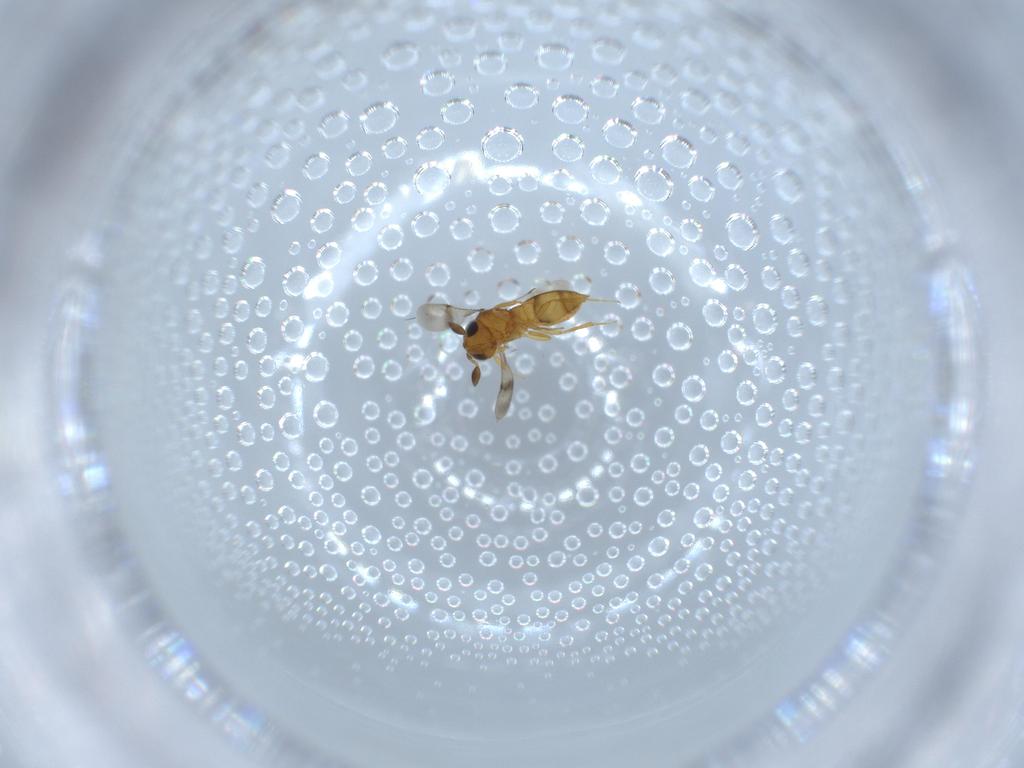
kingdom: Animalia
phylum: Arthropoda
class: Insecta
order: Hymenoptera
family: Scelionidae
